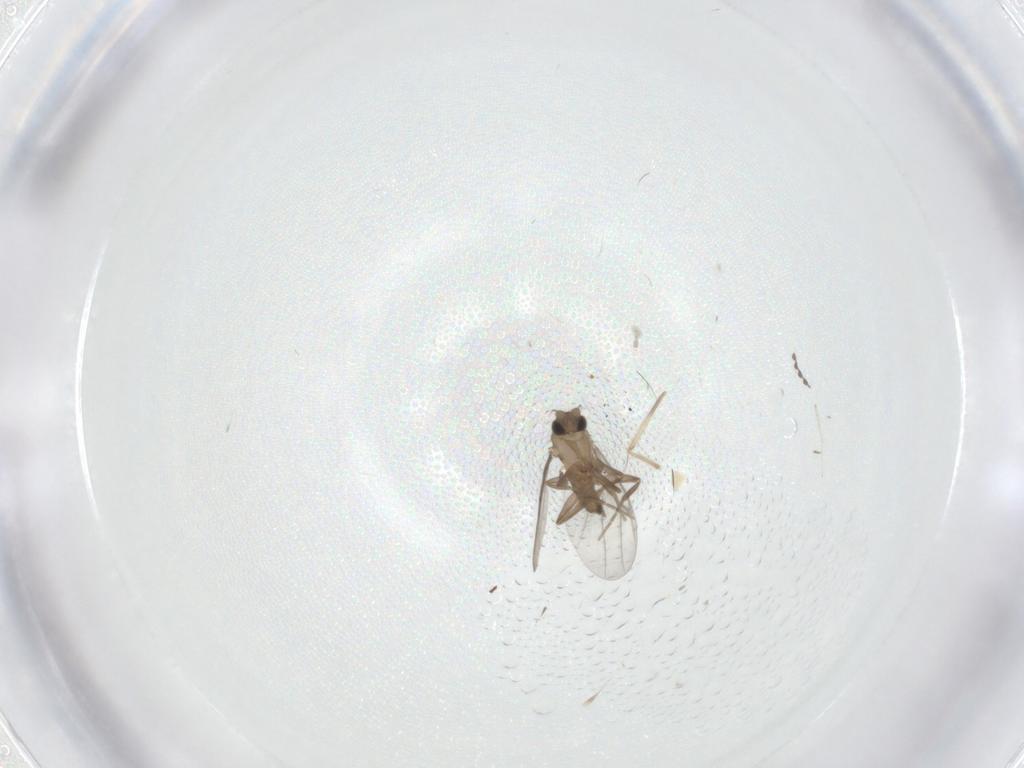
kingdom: Animalia
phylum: Arthropoda
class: Insecta
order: Diptera
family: Chironomidae
